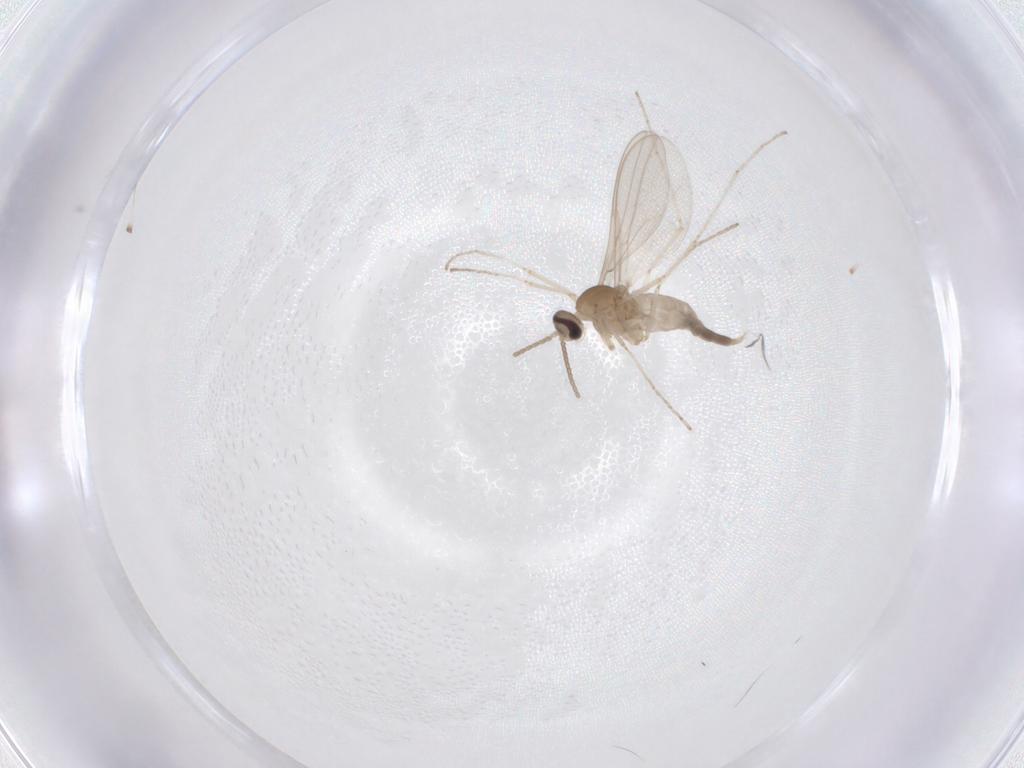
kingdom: Animalia
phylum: Arthropoda
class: Insecta
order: Diptera
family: Cecidomyiidae
